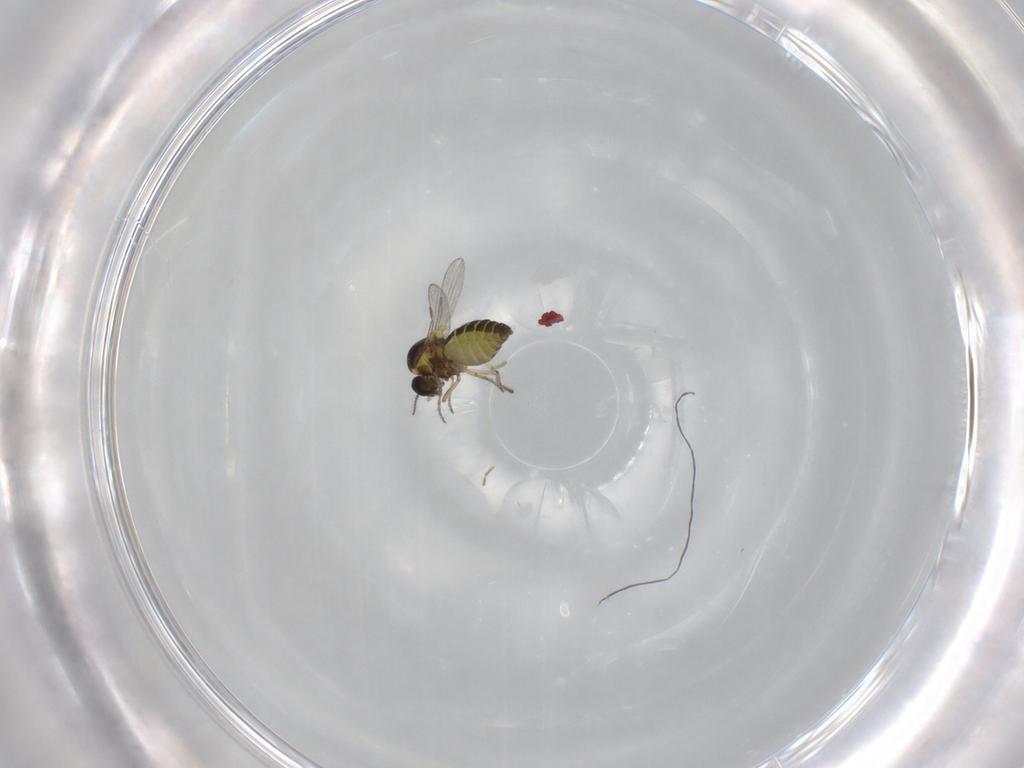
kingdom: Animalia
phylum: Arthropoda
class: Insecta
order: Diptera
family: Ceratopogonidae
